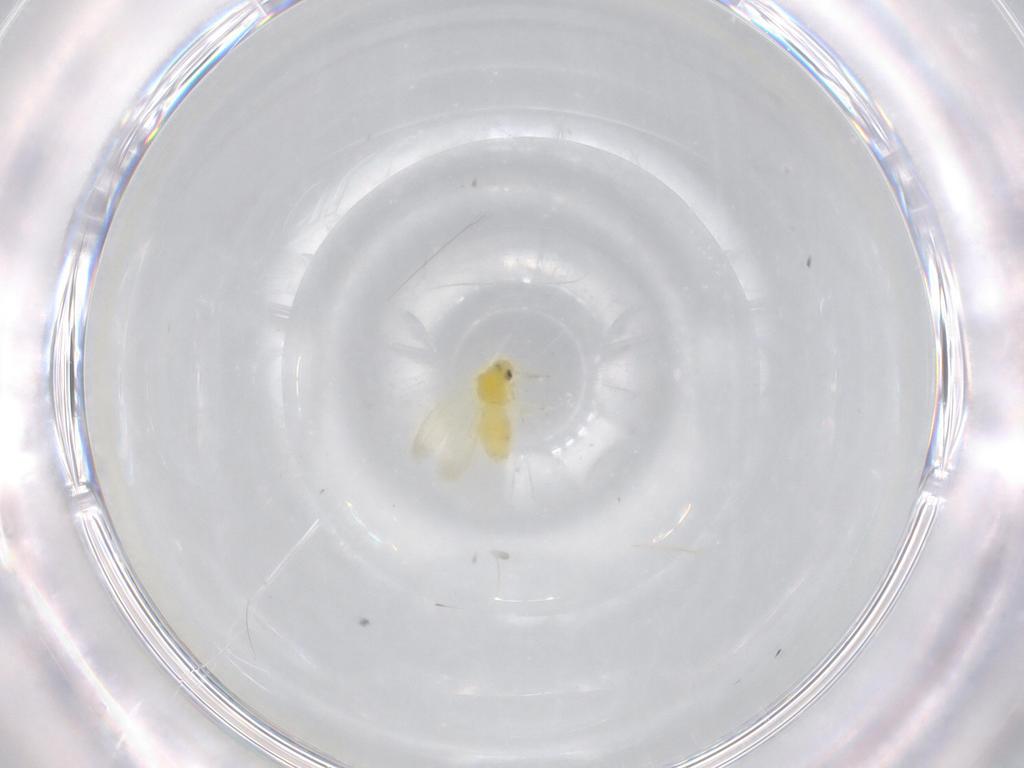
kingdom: Animalia
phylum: Arthropoda
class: Insecta
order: Hemiptera
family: Aleyrodidae
